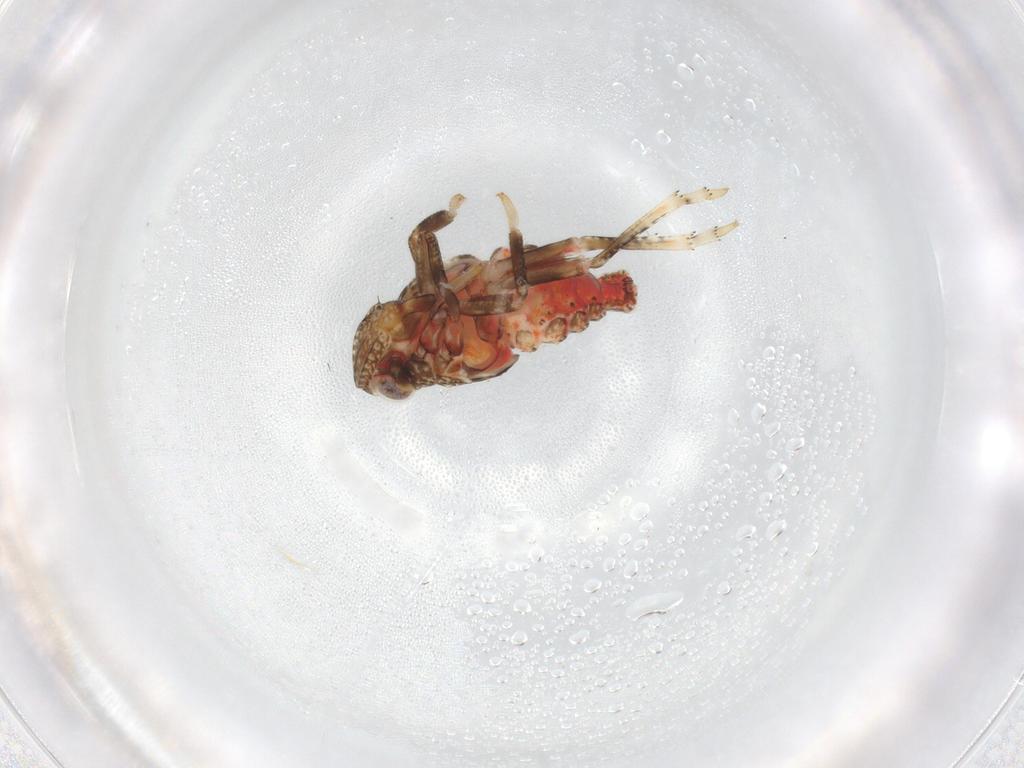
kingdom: Animalia
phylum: Arthropoda
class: Insecta
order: Hemiptera
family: Tropiduchidae
